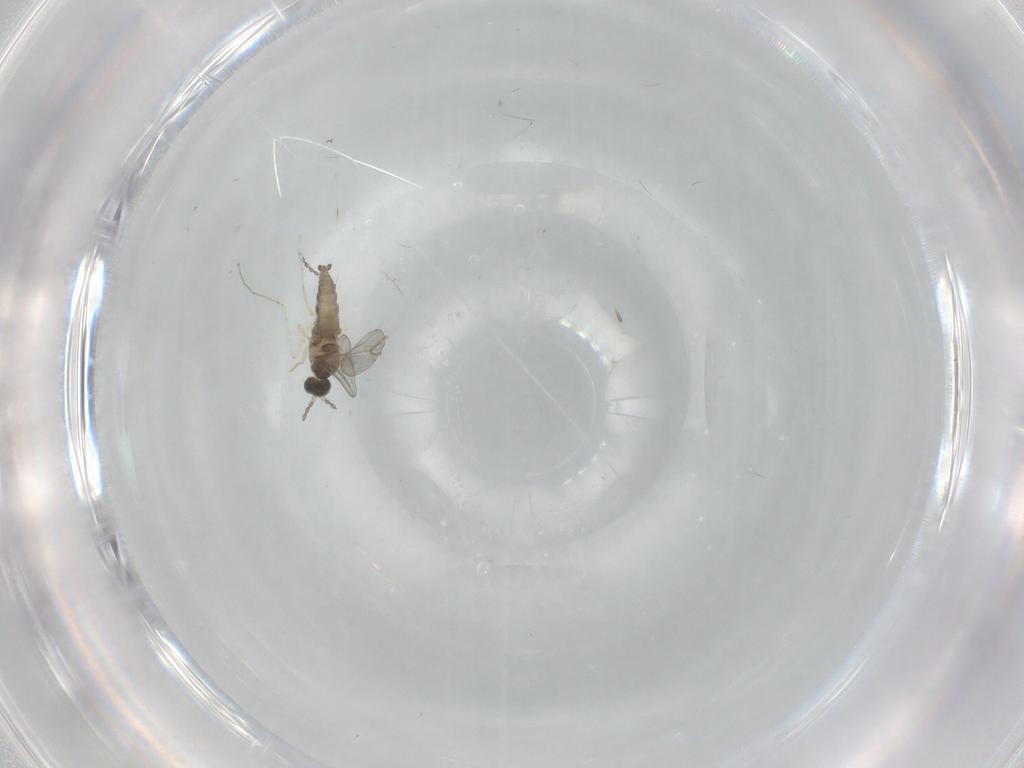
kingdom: Animalia
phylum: Arthropoda
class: Insecta
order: Diptera
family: Cecidomyiidae
